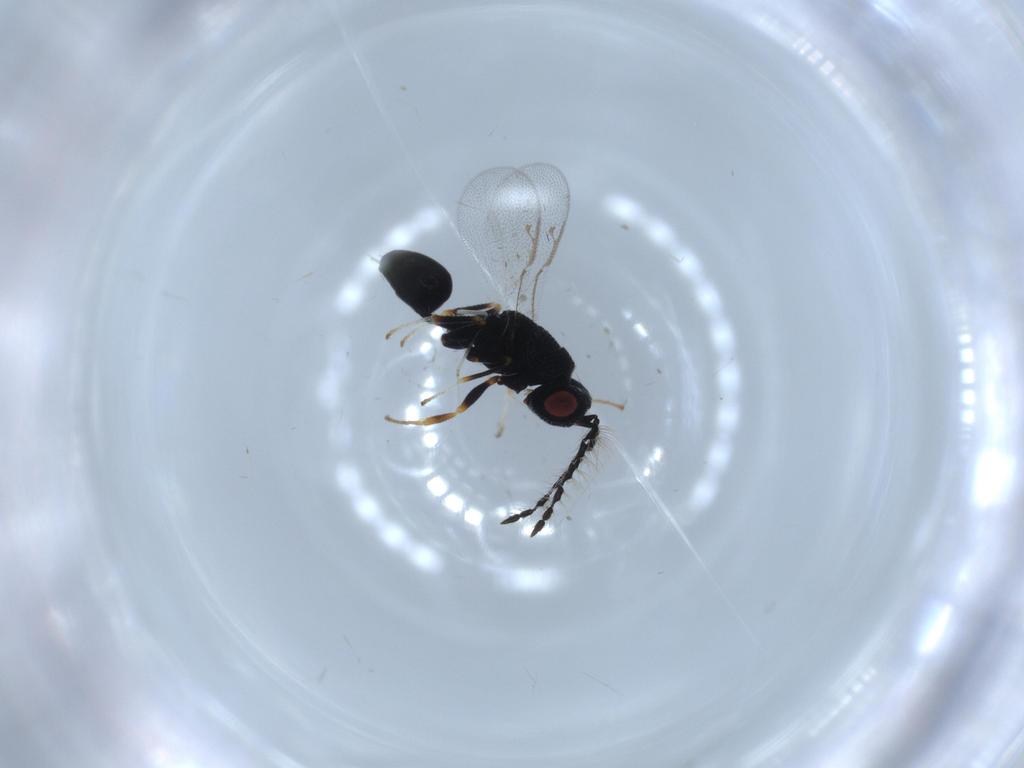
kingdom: Animalia
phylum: Arthropoda
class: Insecta
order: Hymenoptera
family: Eurytomidae
